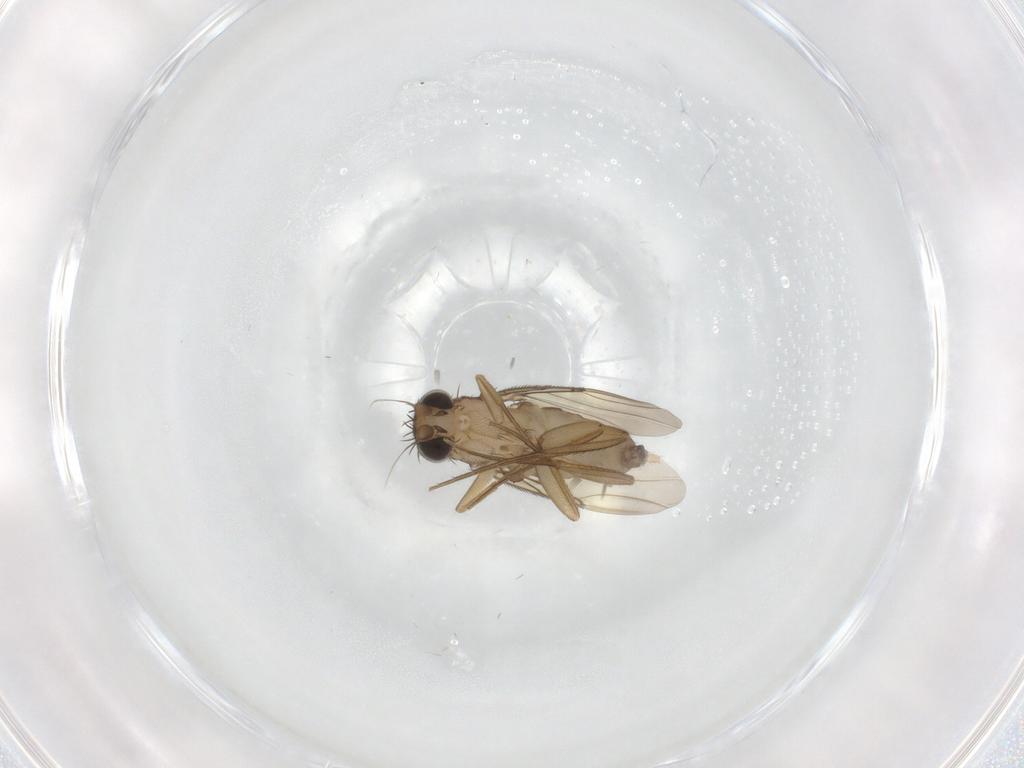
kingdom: Animalia
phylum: Arthropoda
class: Insecta
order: Diptera
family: Phoridae
